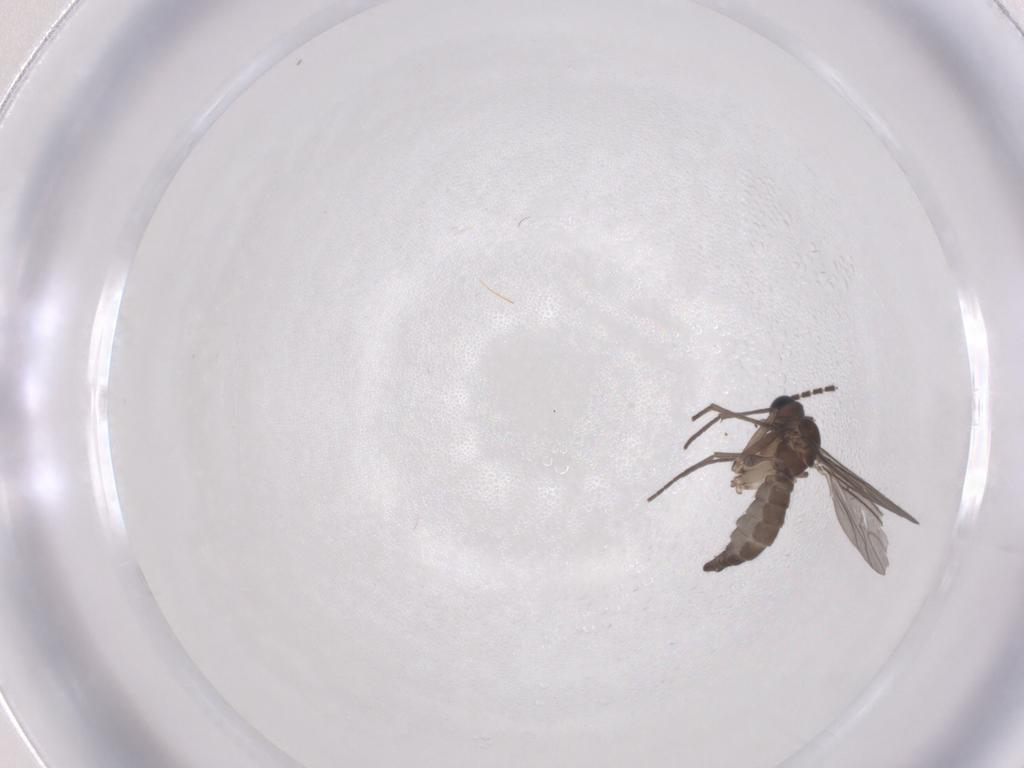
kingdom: Animalia
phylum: Arthropoda
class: Insecta
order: Diptera
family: Sciaridae
